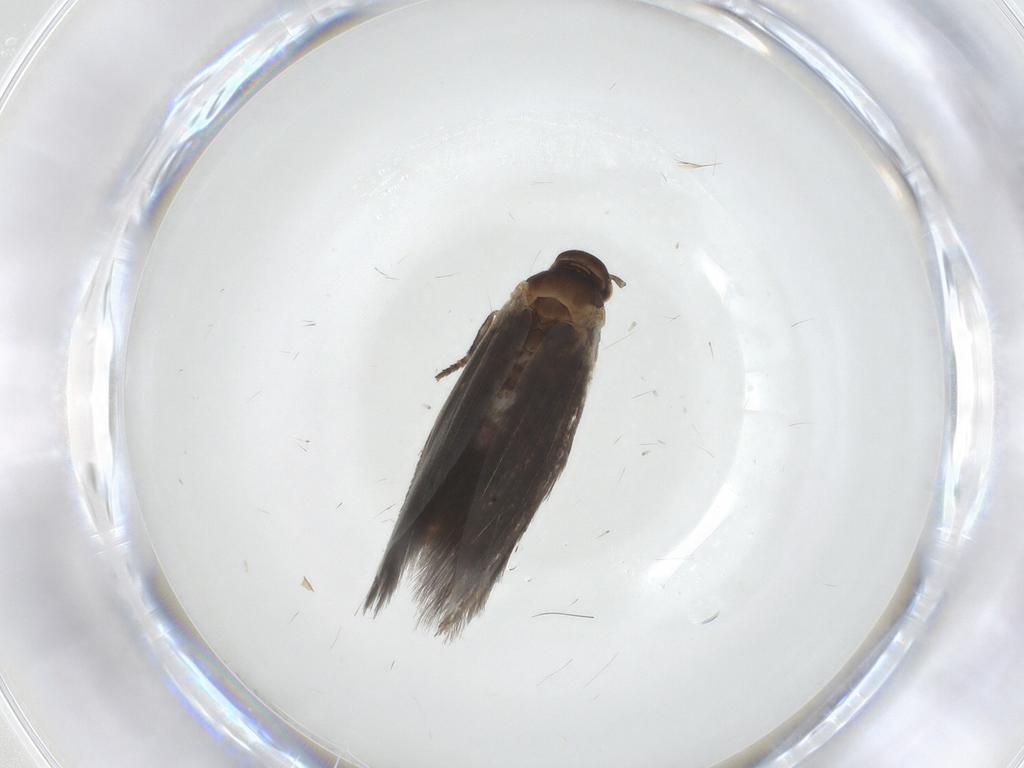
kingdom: Animalia
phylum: Arthropoda
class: Insecta
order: Lepidoptera
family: Elachistidae
